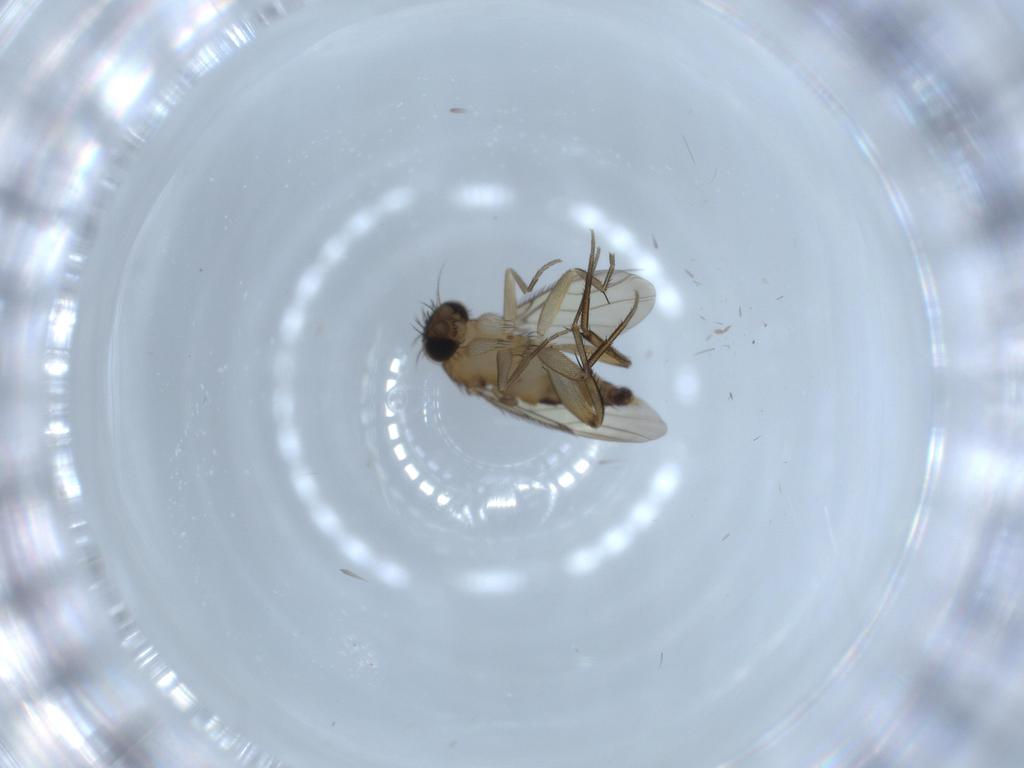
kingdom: Animalia
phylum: Arthropoda
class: Insecta
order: Diptera
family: Phoridae
